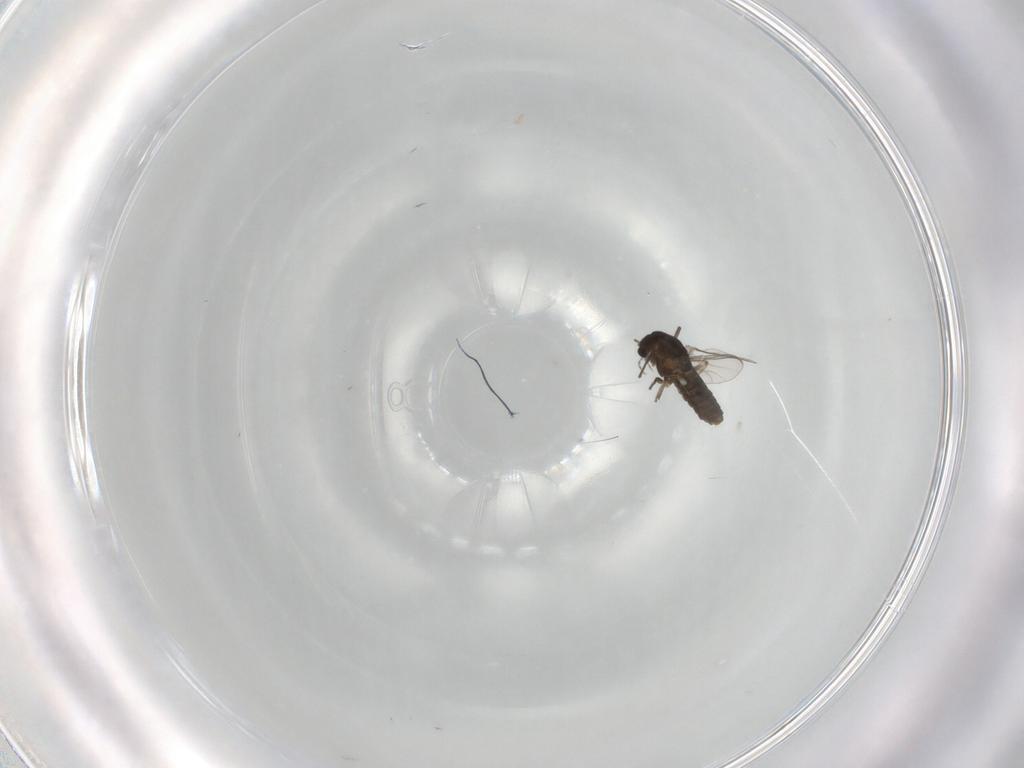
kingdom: Animalia
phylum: Arthropoda
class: Insecta
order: Diptera
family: Chironomidae
